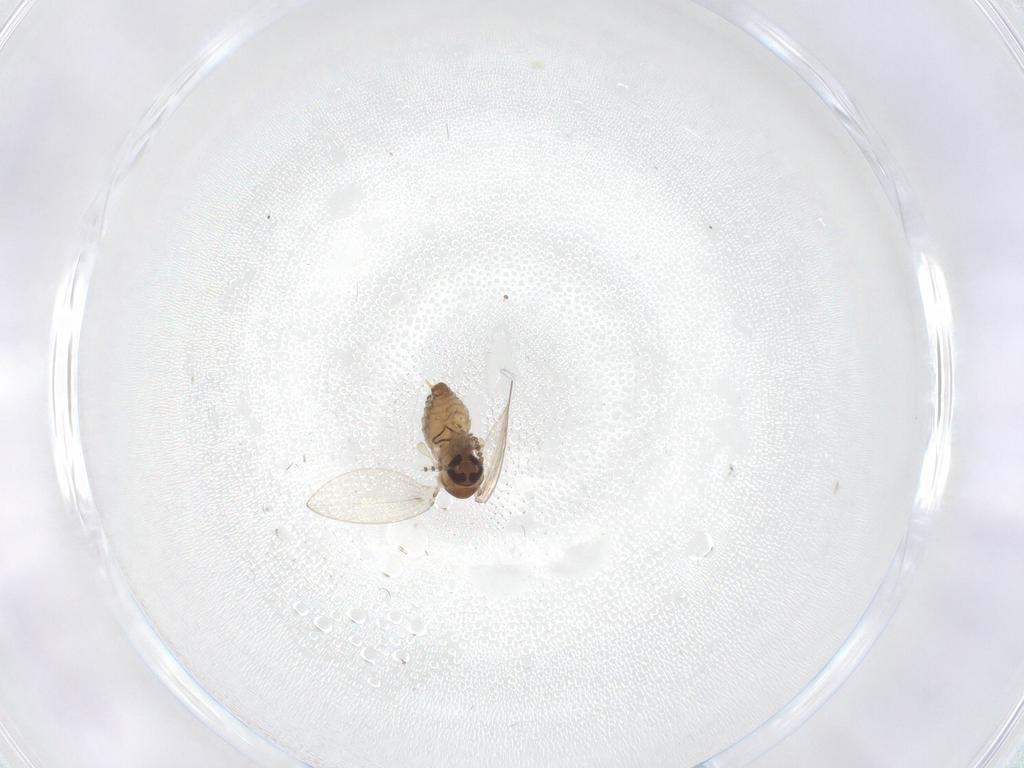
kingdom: Animalia
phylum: Arthropoda
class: Insecta
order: Diptera
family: Psychodidae
